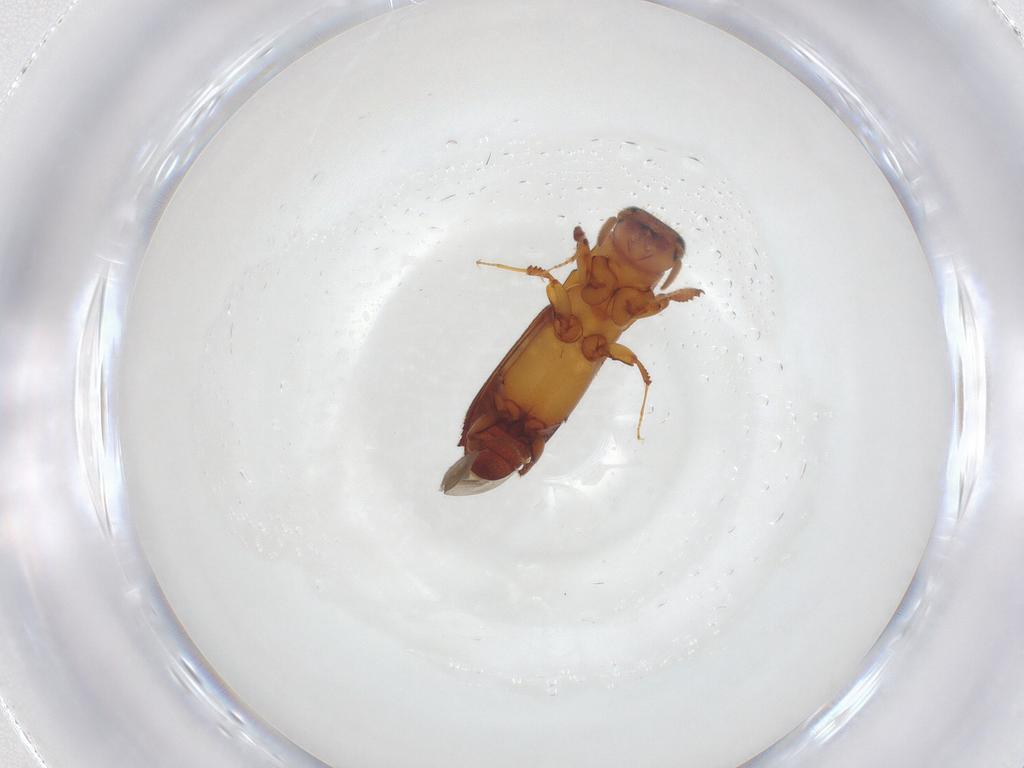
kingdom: Animalia
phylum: Arthropoda
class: Insecta
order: Coleoptera
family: Curculionidae
